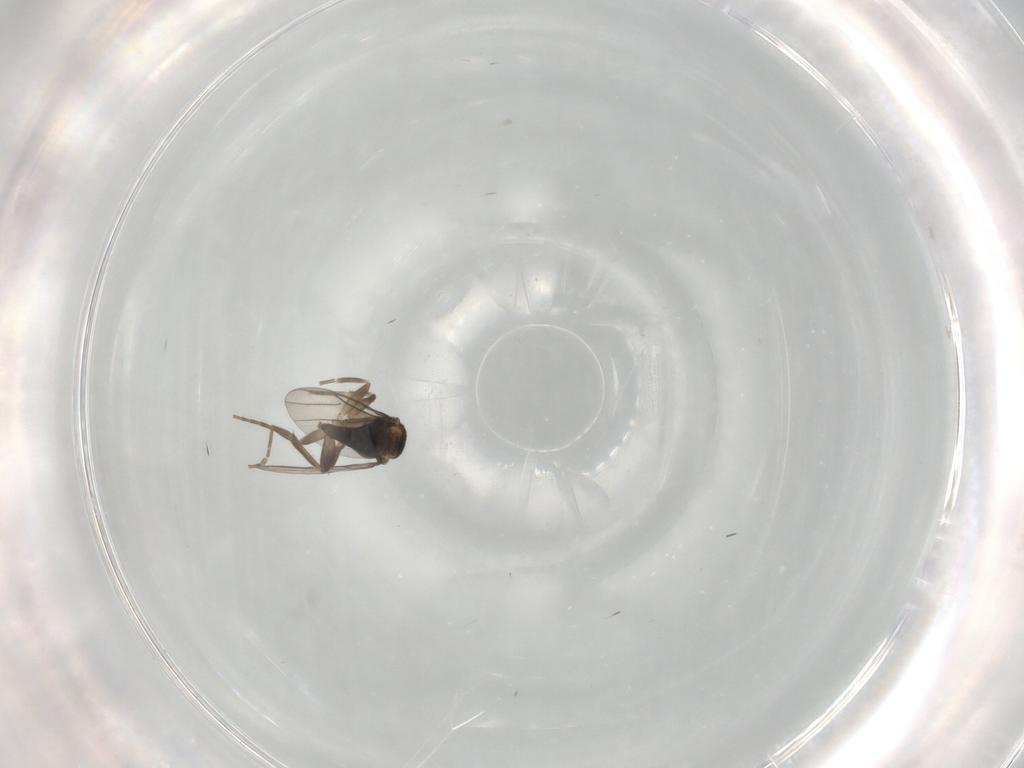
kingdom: Animalia
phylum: Arthropoda
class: Insecta
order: Diptera
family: Phoridae
